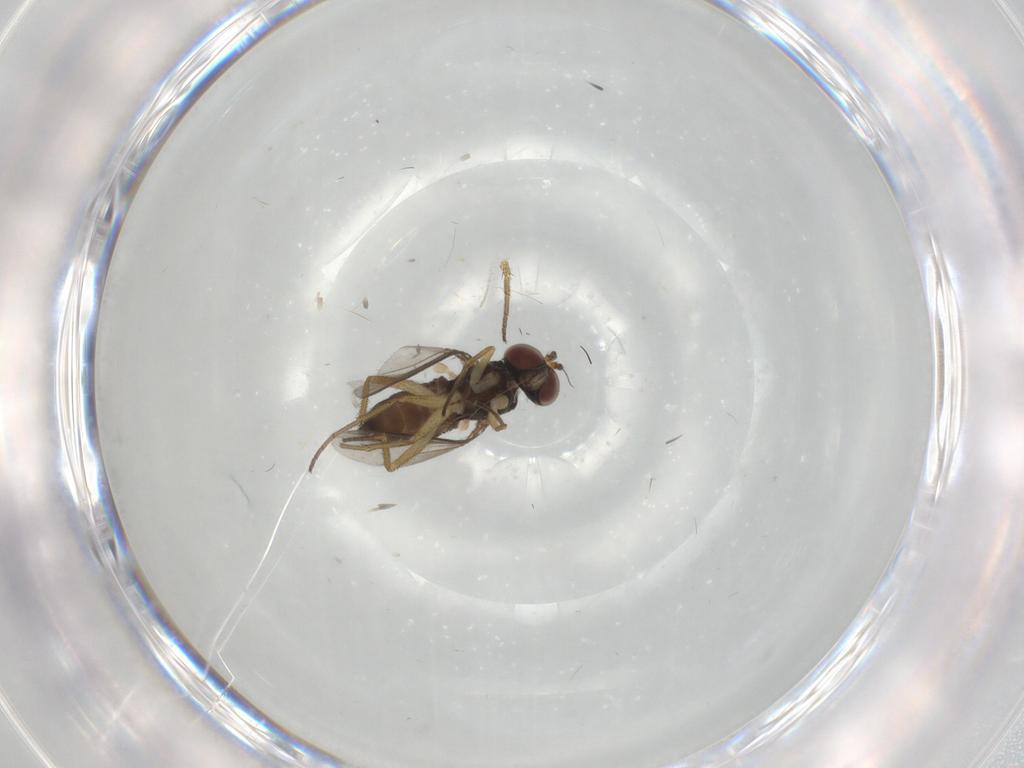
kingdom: Animalia
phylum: Arthropoda
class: Insecta
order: Diptera
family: Dolichopodidae
